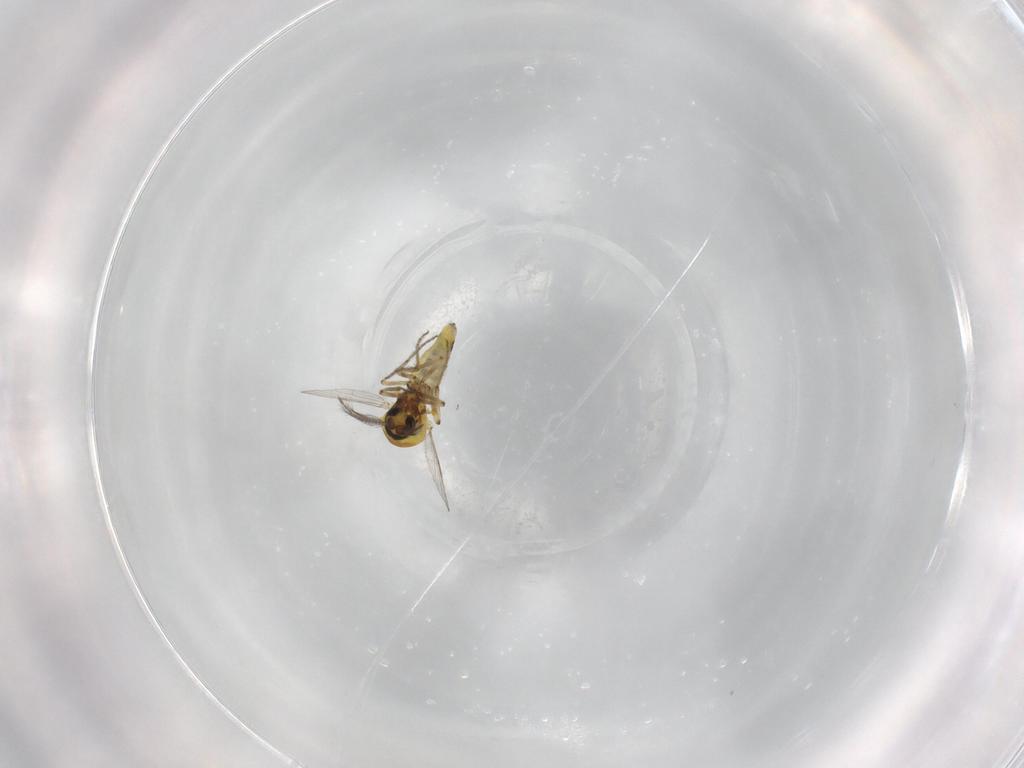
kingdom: Animalia
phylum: Arthropoda
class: Insecta
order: Diptera
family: Ceratopogonidae
